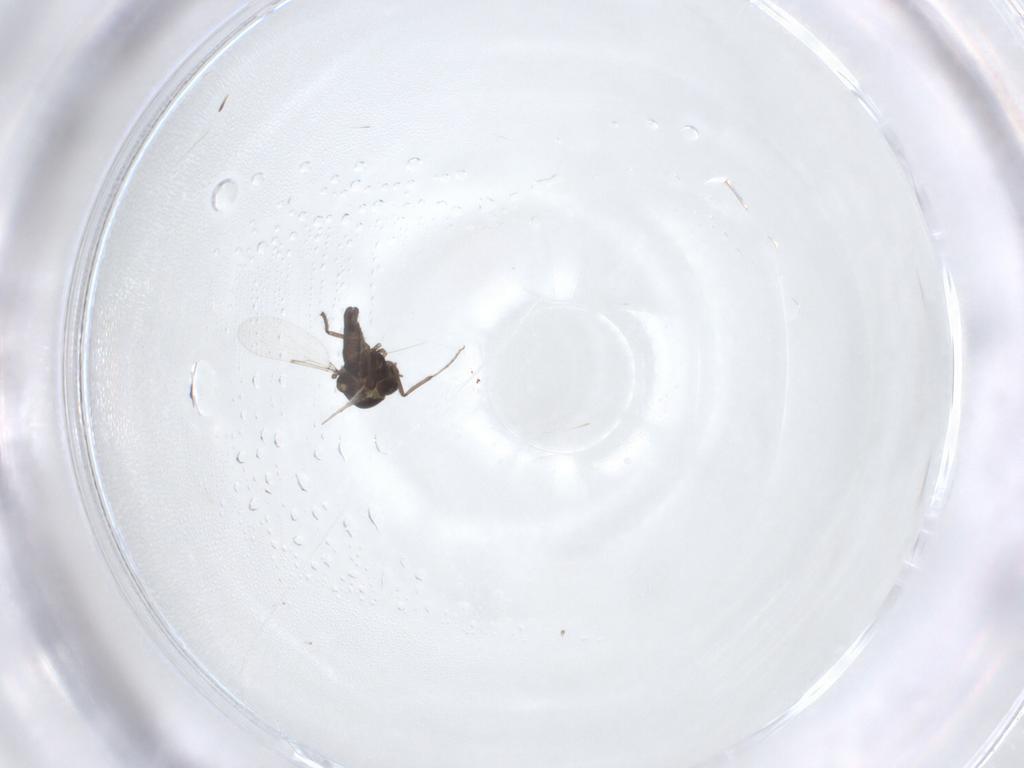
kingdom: Animalia
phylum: Arthropoda
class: Insecta
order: Diptera
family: Ceratopogonidae
